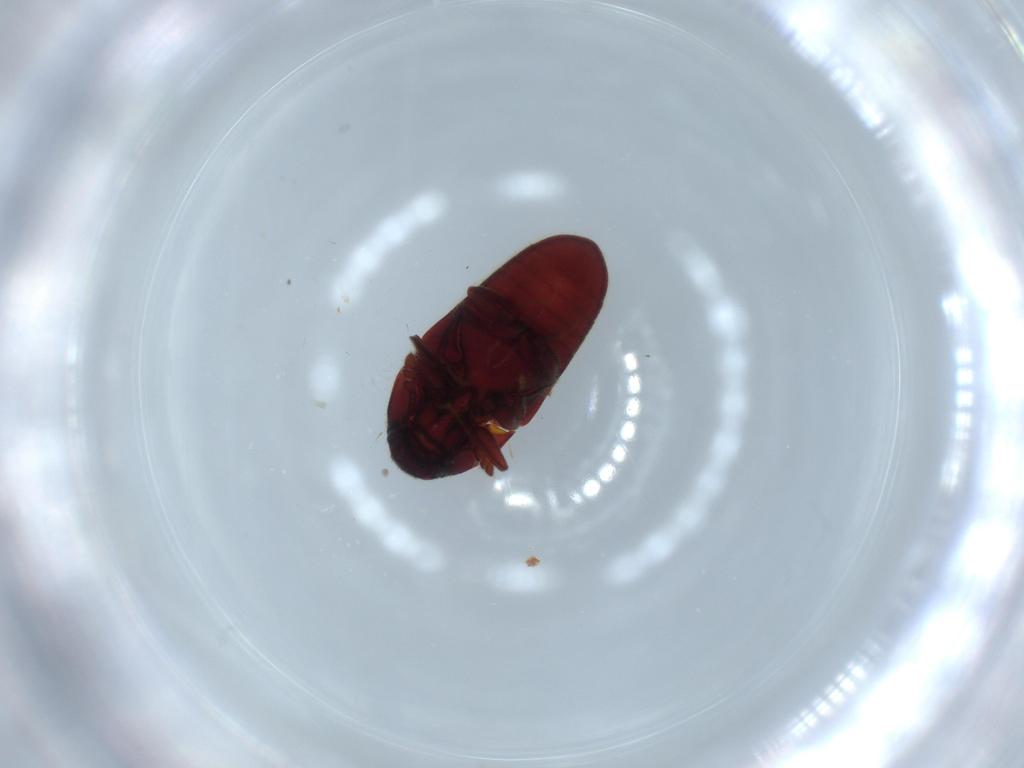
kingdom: Animalia
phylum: Arthropoda
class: Insecta
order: Coleoptera
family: Throscidae
